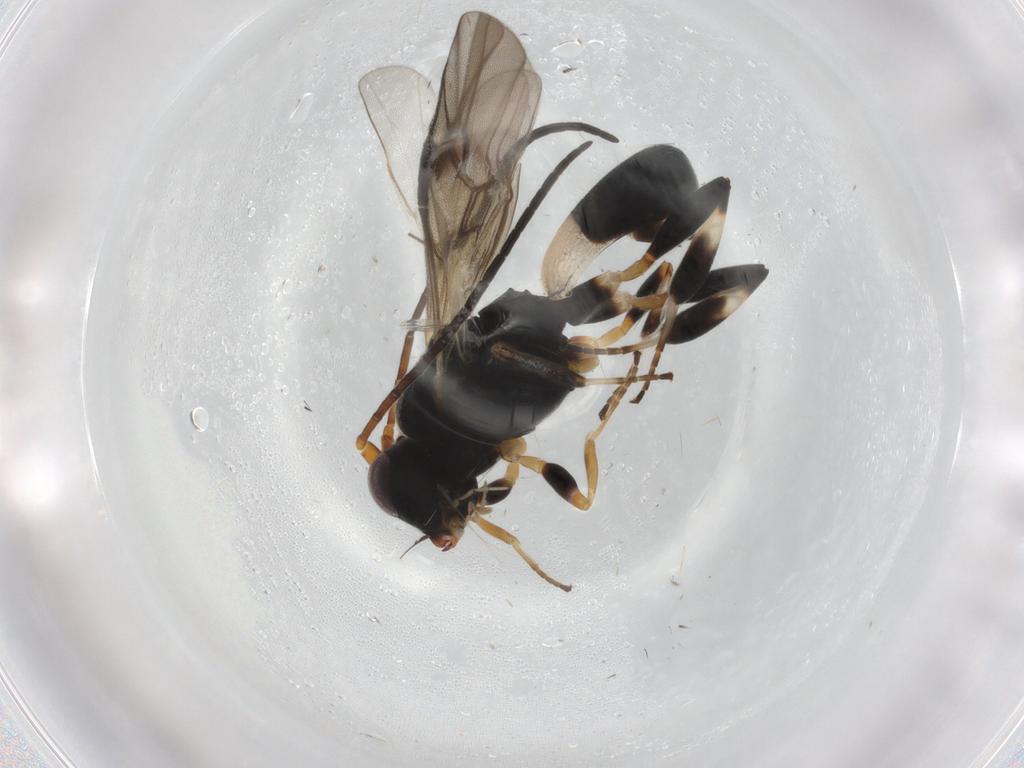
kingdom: Animalia
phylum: Arthropoda
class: Insecta
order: Hymenoptera
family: Braconidae
